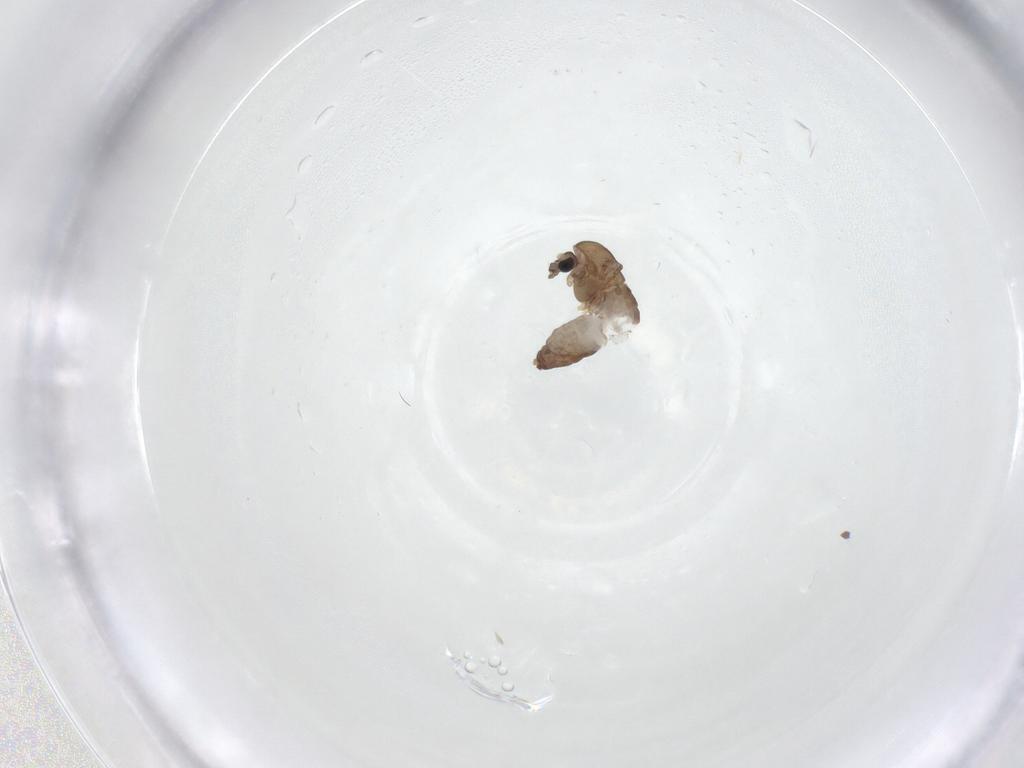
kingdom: Animalia
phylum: Arthropoda
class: Insecta
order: Diptera
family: Chironomidae
